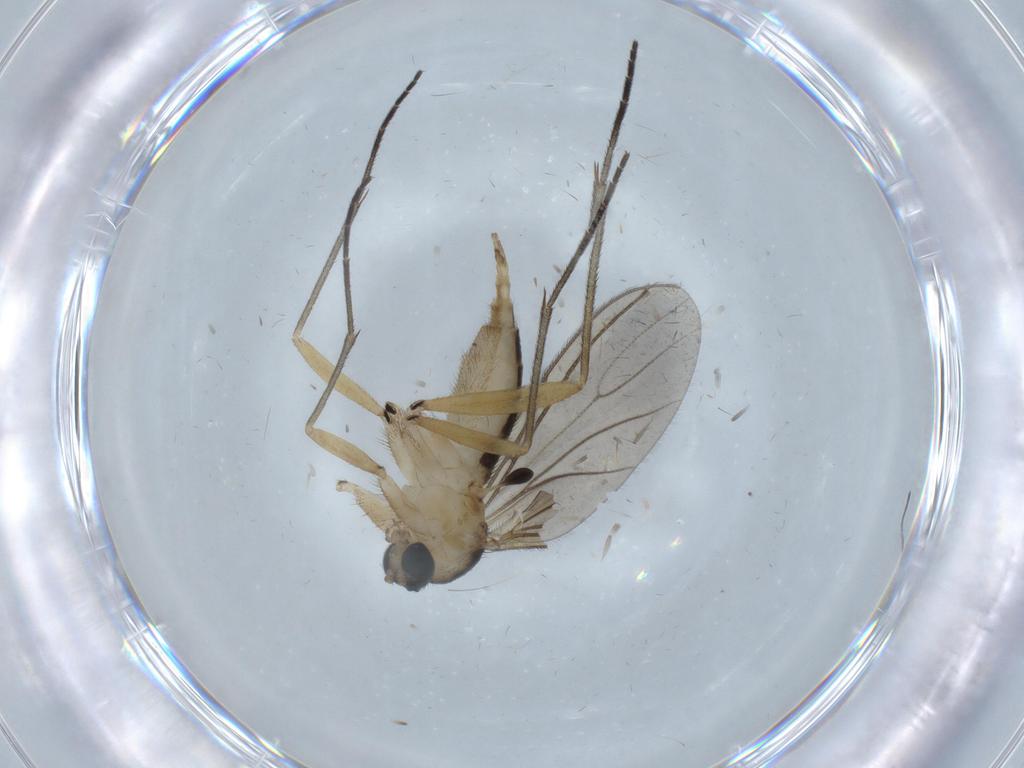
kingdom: Animalia
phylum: Arthropoda
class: Insecta
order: Diptera
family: Sciaridae
